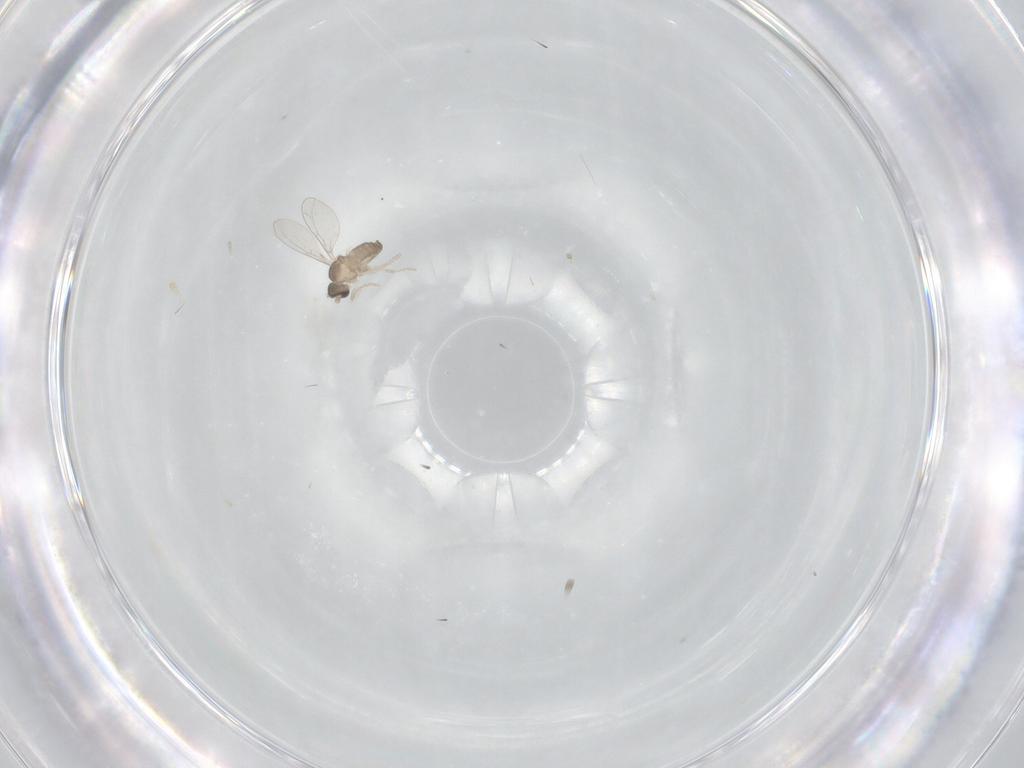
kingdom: Animalia
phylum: Arthropoda
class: Insecta
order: Diptera
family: Cecidomyiidae
